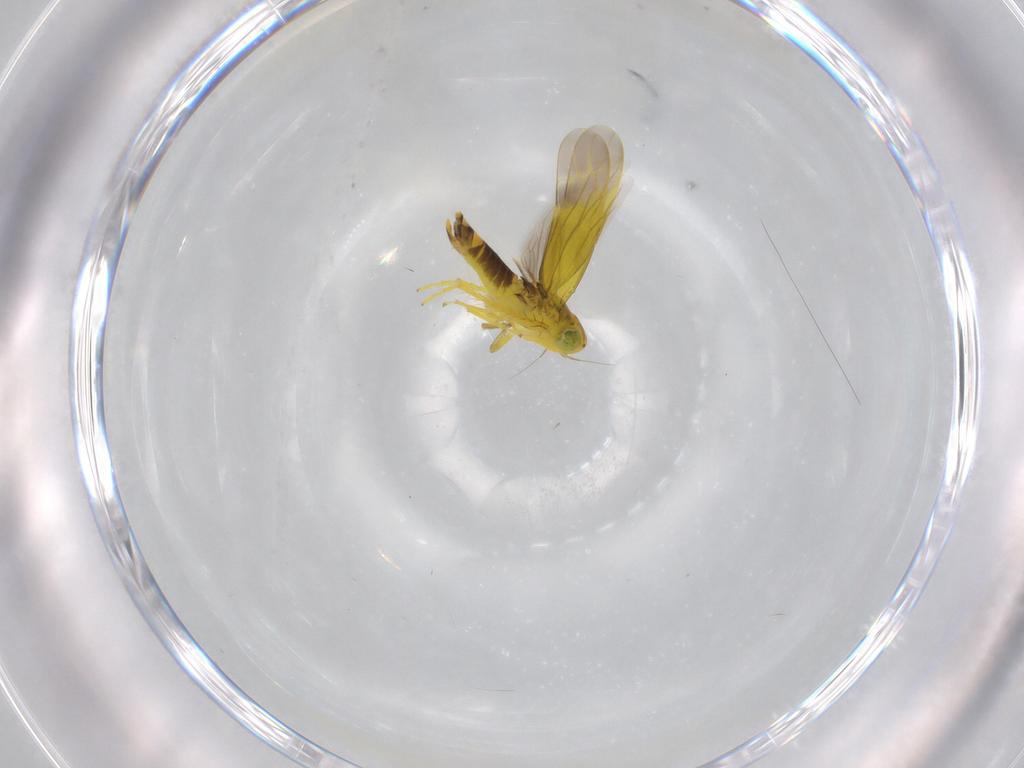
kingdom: Animalia
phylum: Arthropoda
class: Insecta
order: Hemiptera
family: Cicadellidae
